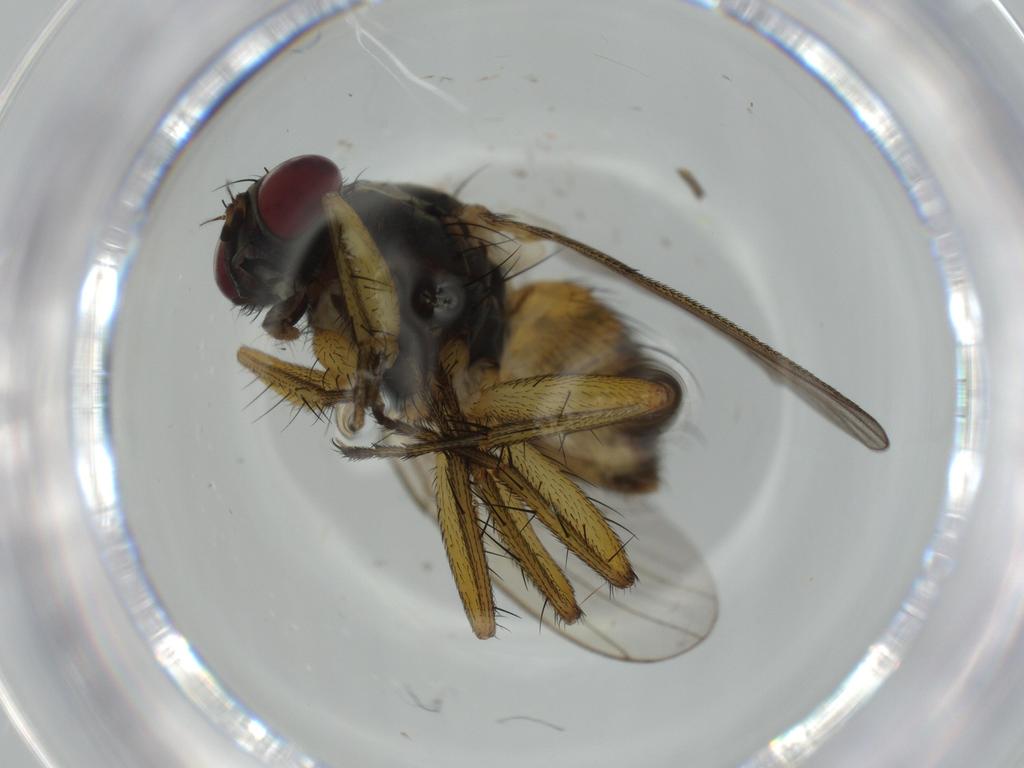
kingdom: Animalia
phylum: Arthropoda
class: Insecta
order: Diptera
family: Muscidae
